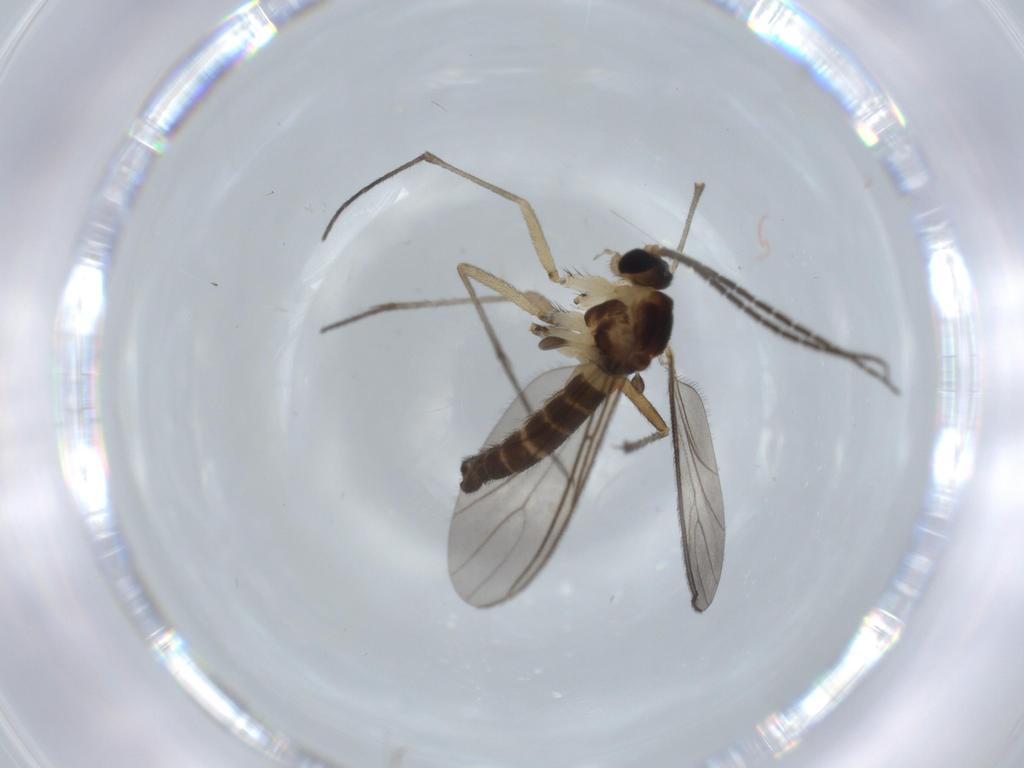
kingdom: Animalia
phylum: Arthropoda
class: Insecta
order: Diptera
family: Sciaridae
